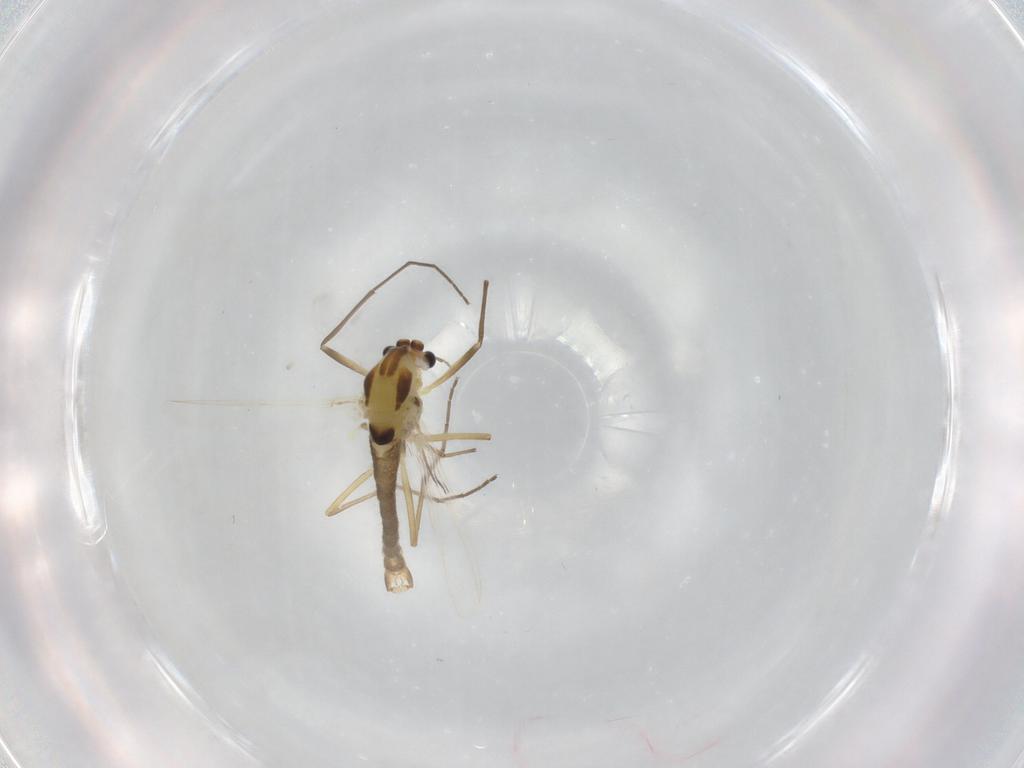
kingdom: Animalia
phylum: Arthropoda
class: Insecta
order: Diptera
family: Chironomidae
